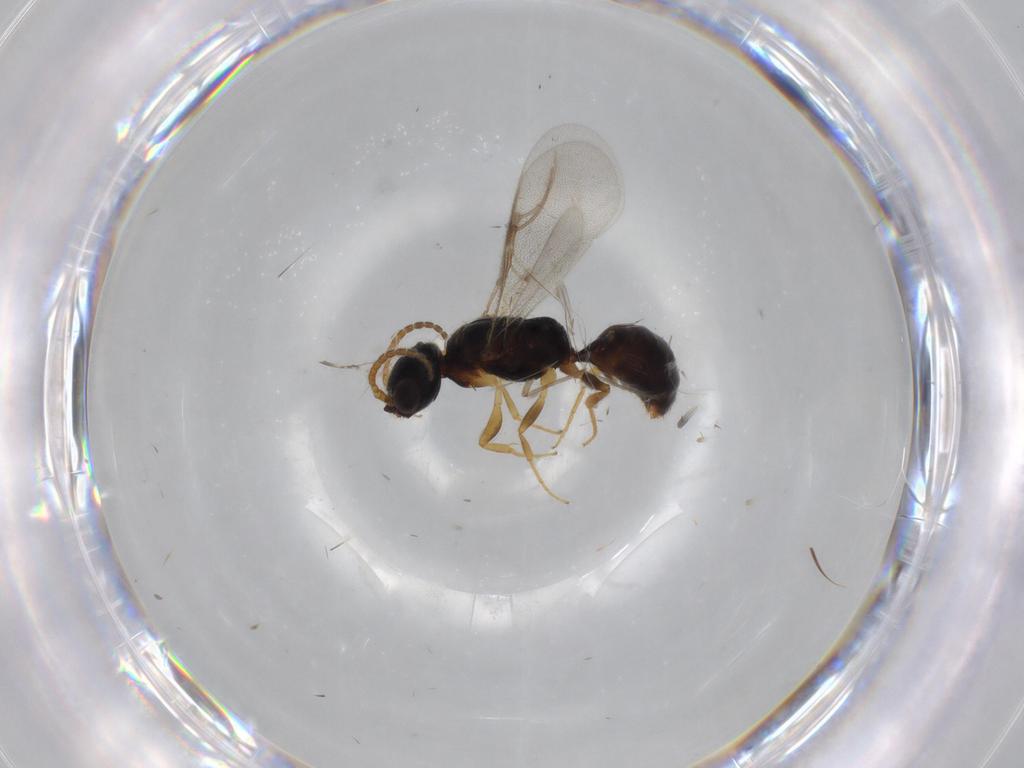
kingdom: Animalia
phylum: Arthropoda
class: Insecta
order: Hymenoptera
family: Bethylidae
